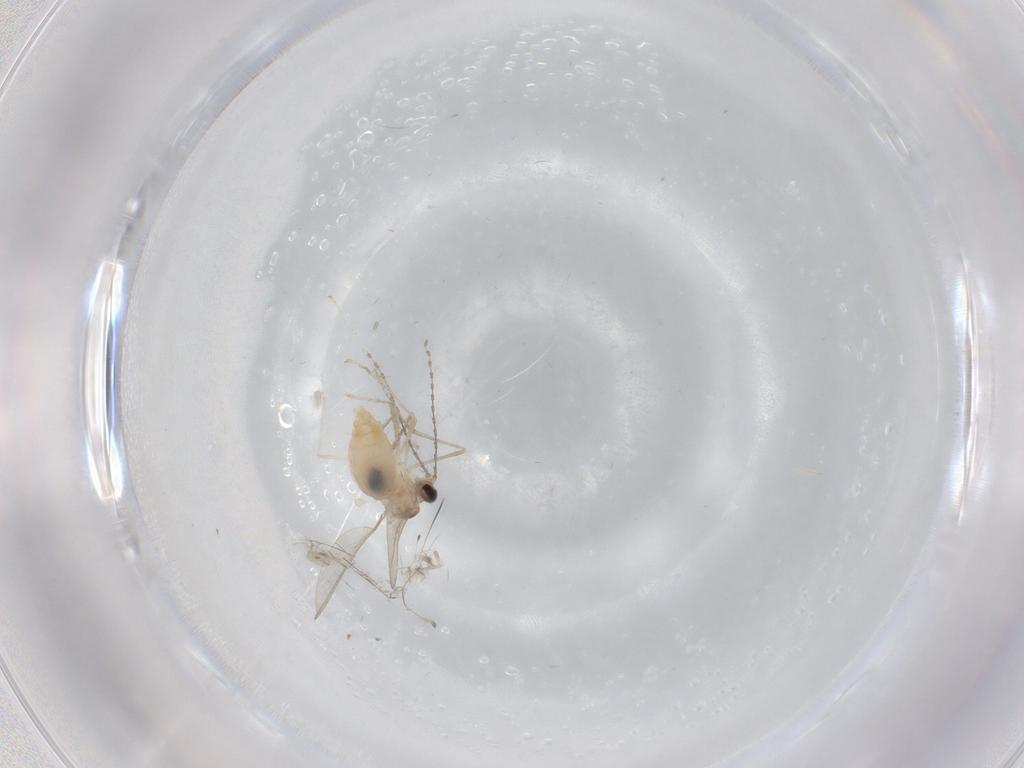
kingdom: Animalia
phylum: Arthropoda
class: Insecta
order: Diptera
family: Cecidomyiidae
